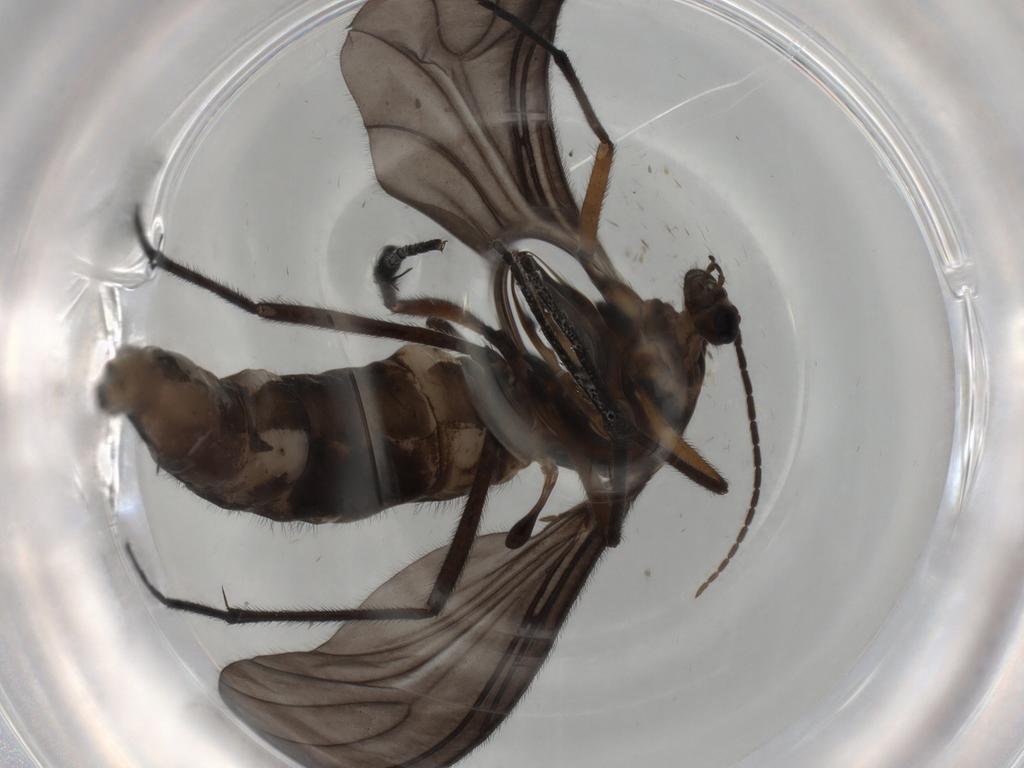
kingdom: Animalia
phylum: Arthropoda
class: Insecta
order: Diptera
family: Sciaridae
